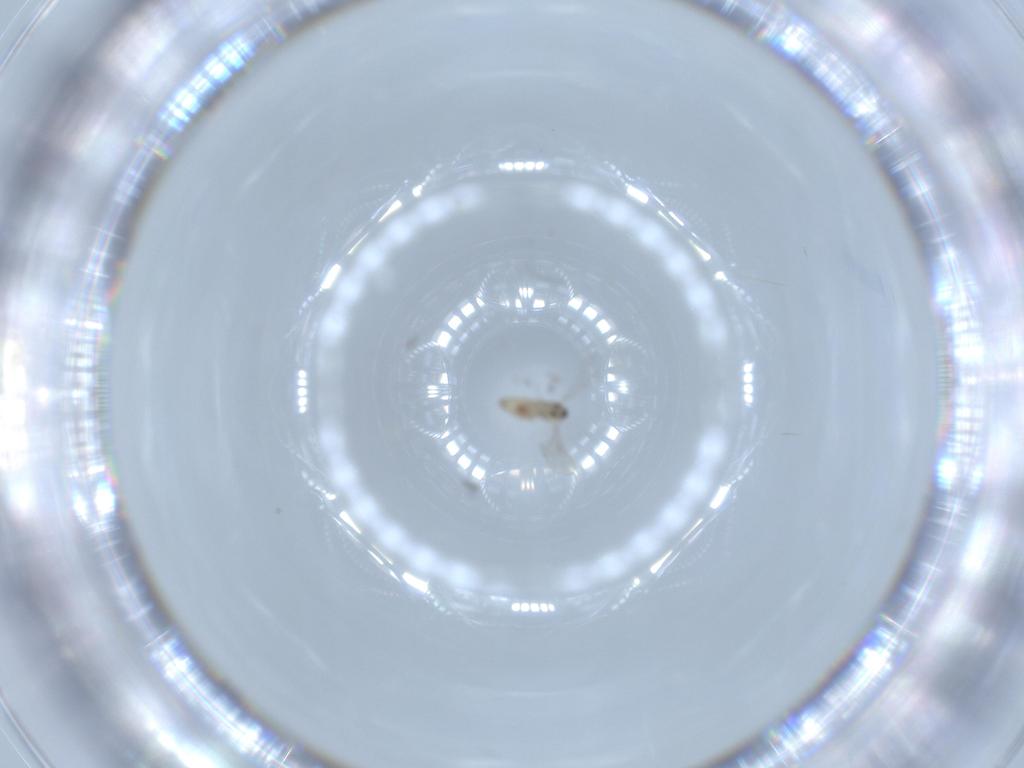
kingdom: Animalia
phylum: Arthropoda
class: Insecta
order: Diptera
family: Cecidomyiidae
